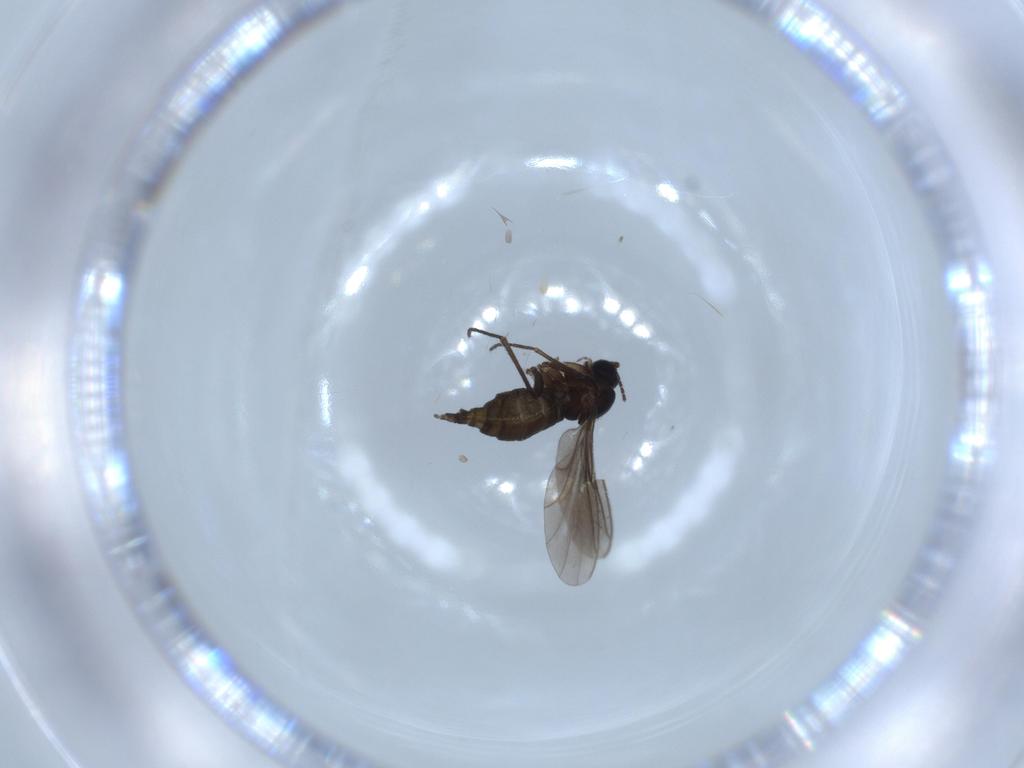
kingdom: Animalia
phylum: Arthropoda
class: Insecta
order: Diptera
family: Sciaridae
